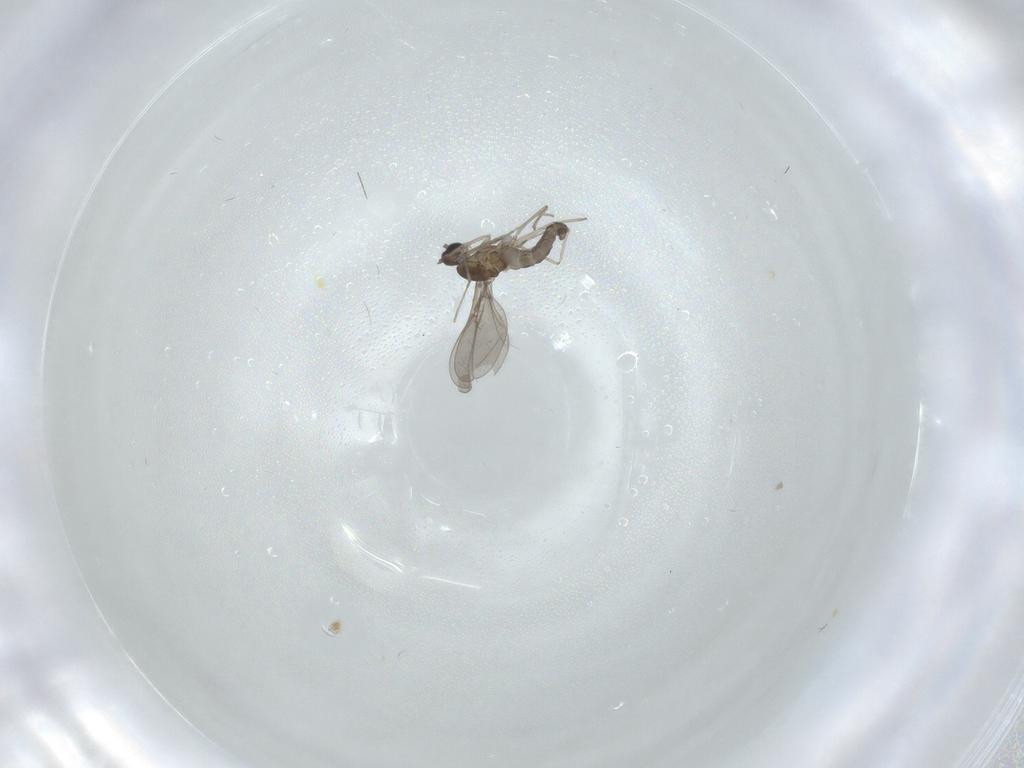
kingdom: Animalia
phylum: Arthropoda
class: Insecta
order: Diptera
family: Cecidomyiidae
